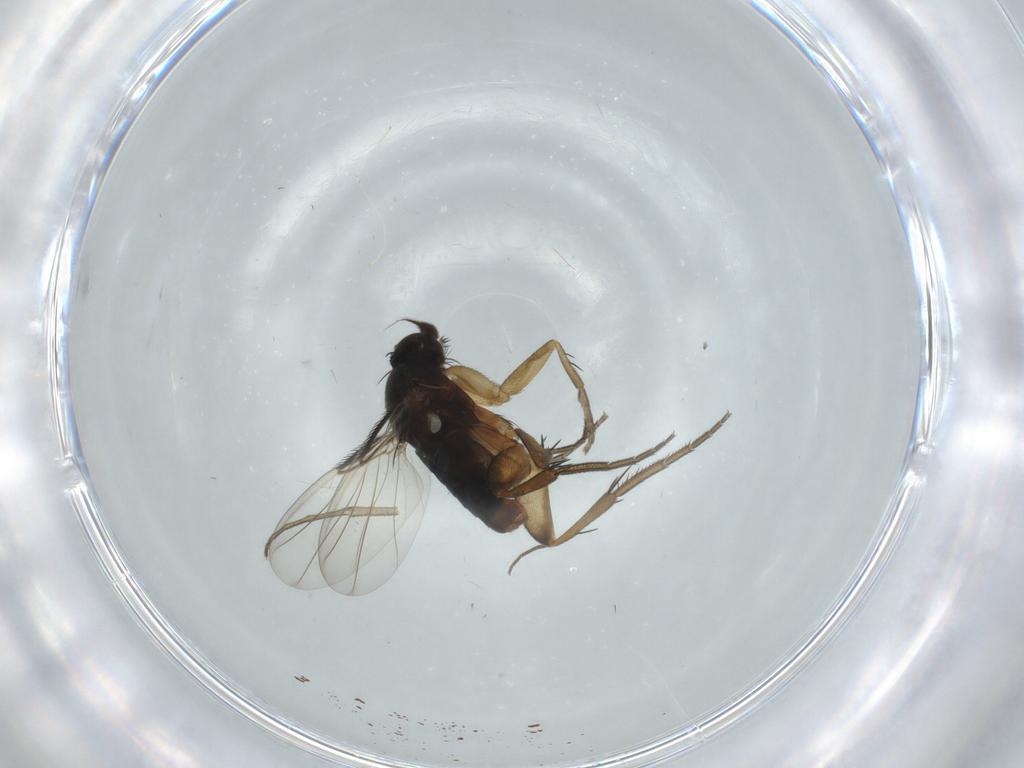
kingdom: Animalia
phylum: Arthropoda
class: Insecta
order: Diptera
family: Phoridae
